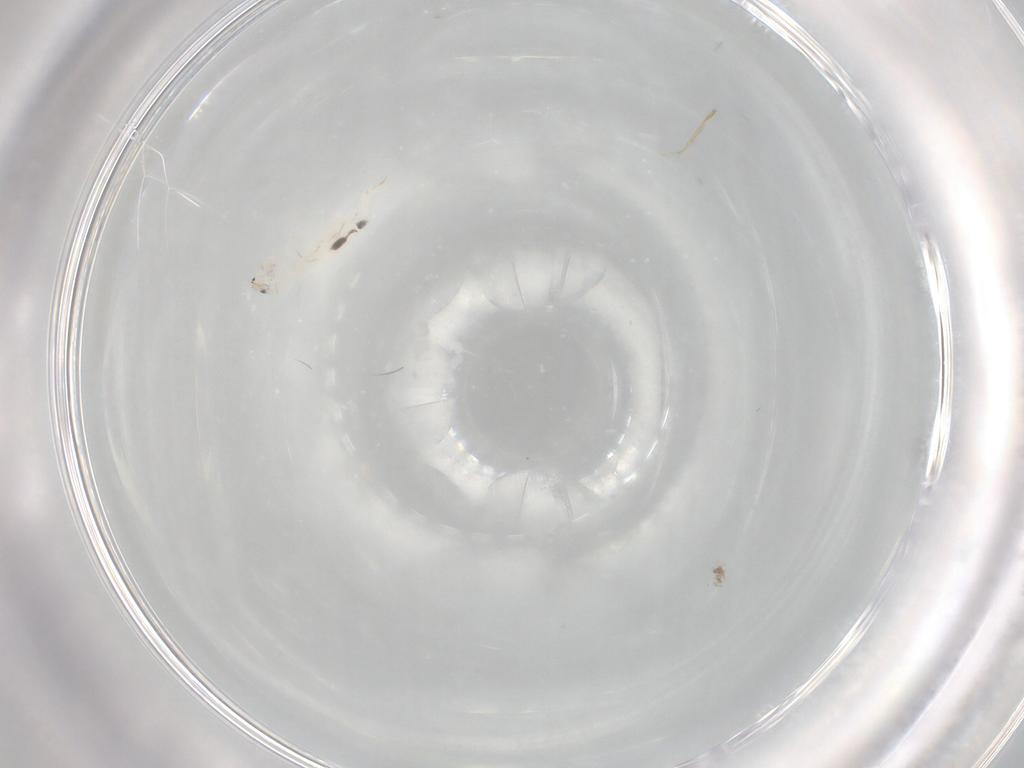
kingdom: Animalia
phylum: Arthropoda
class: Collembola
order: Entomobryomorpha
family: Entomobryidae
